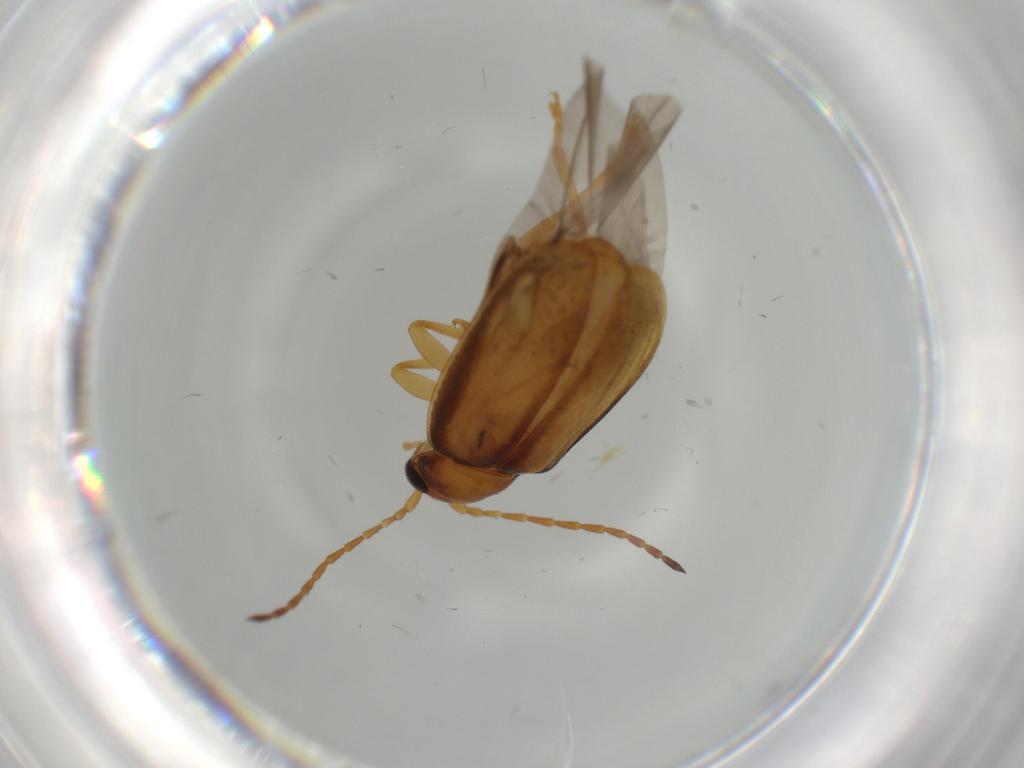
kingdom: Animalia
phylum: Arthropoda
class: Insecta
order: Coleoptera
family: Chrysomelidae
